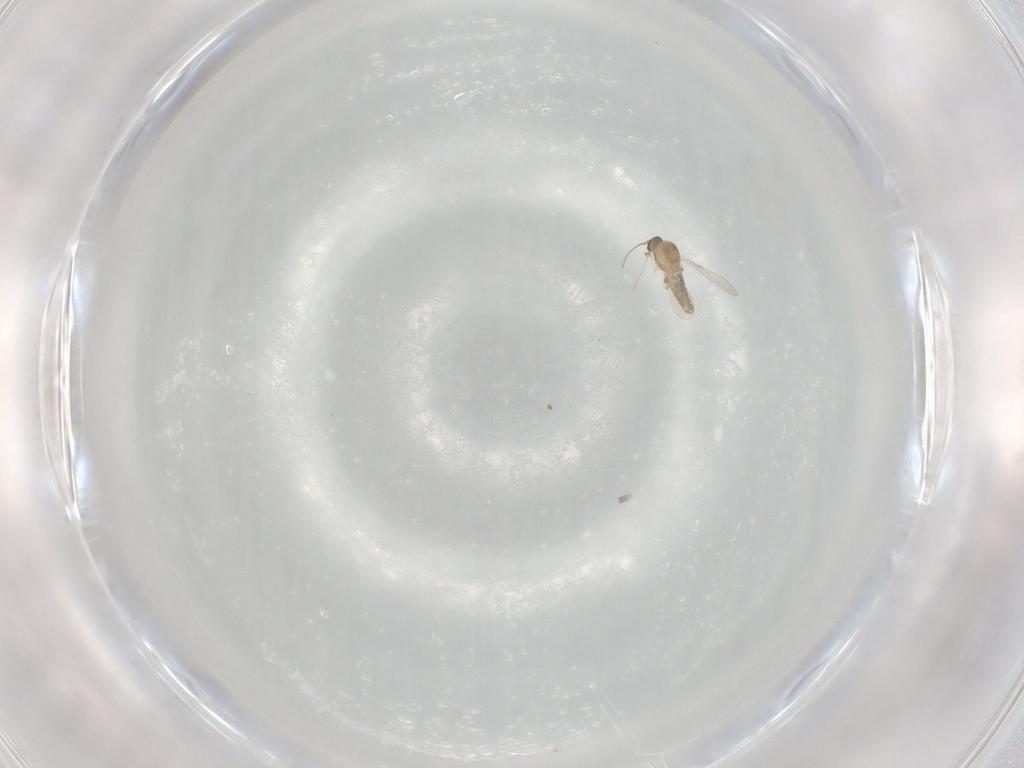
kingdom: Animalia
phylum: Arthropoda
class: Insecta
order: Diptera
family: Ceratopogonidae
